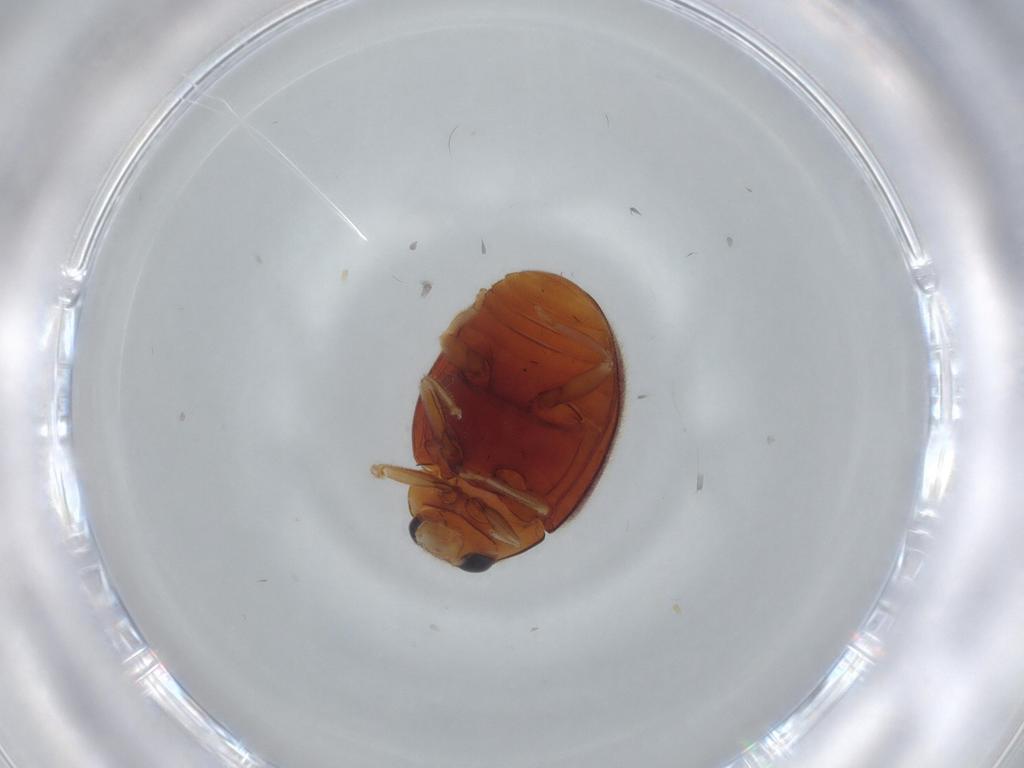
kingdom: Animalia
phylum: Arthropoda
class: Insecta
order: Coleoptera
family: Coccinellidae
